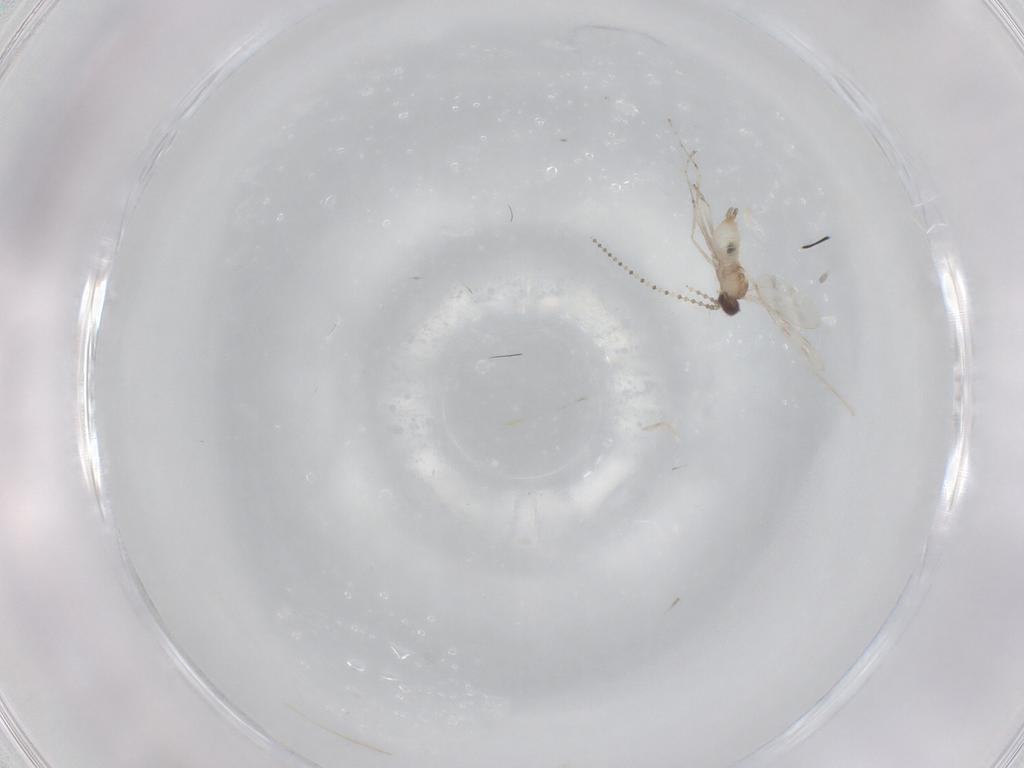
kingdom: Animalia
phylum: Arthropoda
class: Insecta
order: Diptera
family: Cecidomyiidae
